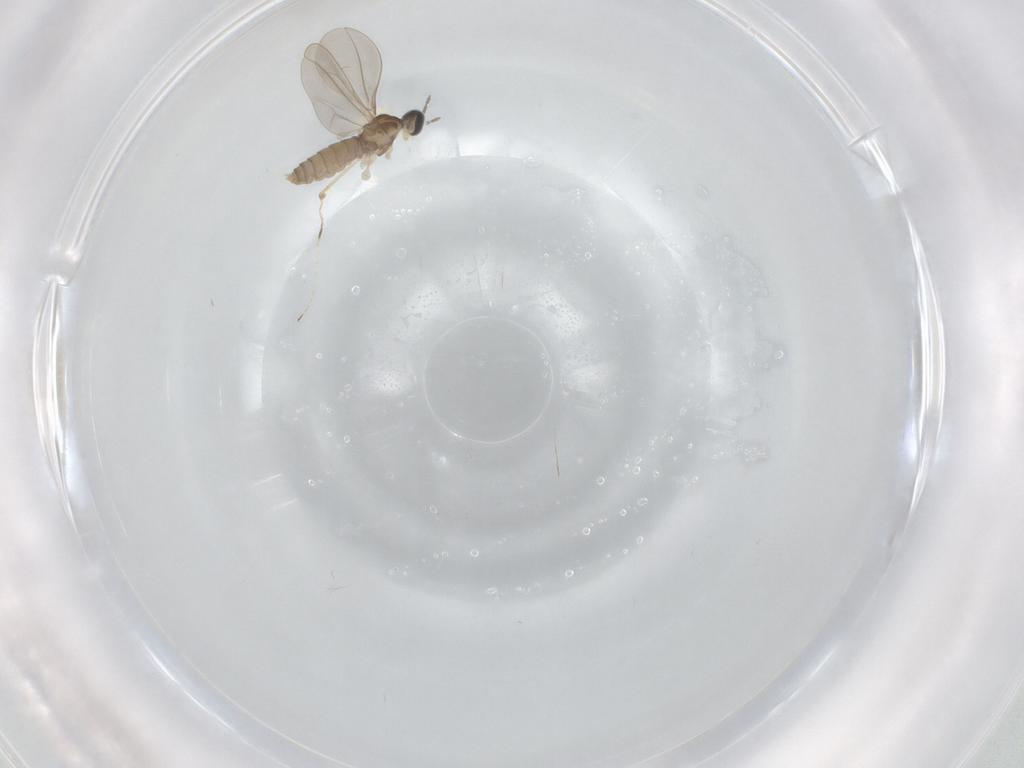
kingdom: Animalia
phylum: Arthropoda
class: Insecta
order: Diptera
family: Cecidomyiidae
